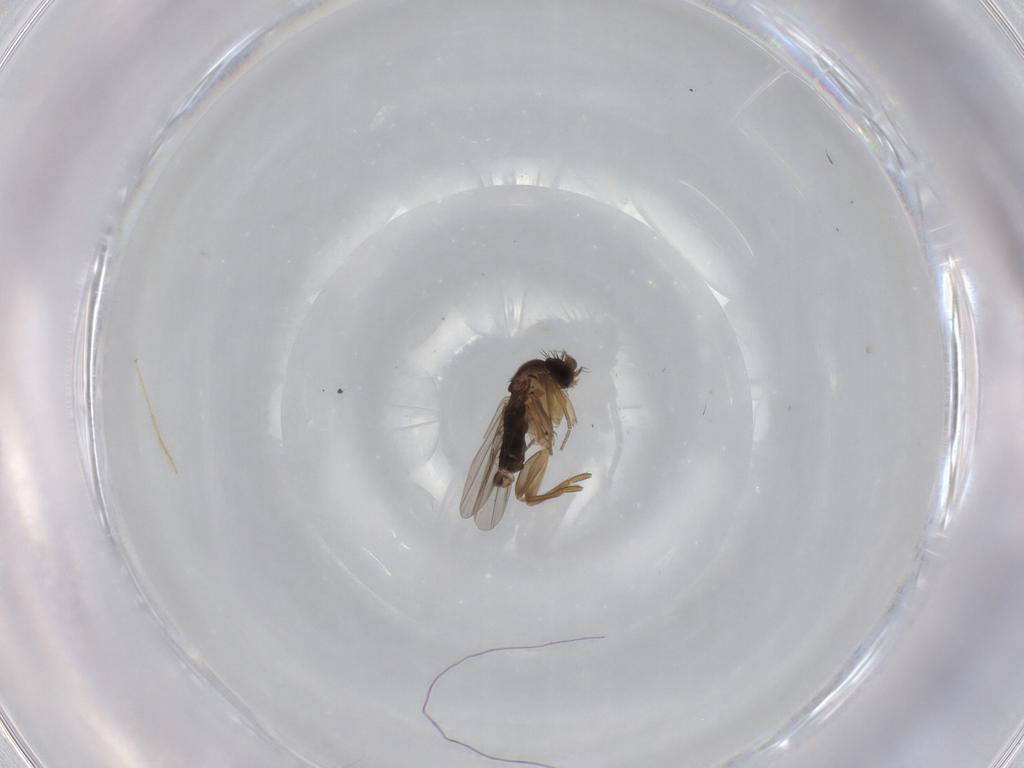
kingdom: Animalia
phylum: Arthropoda
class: Insecta
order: Diptera
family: Chironomidae
